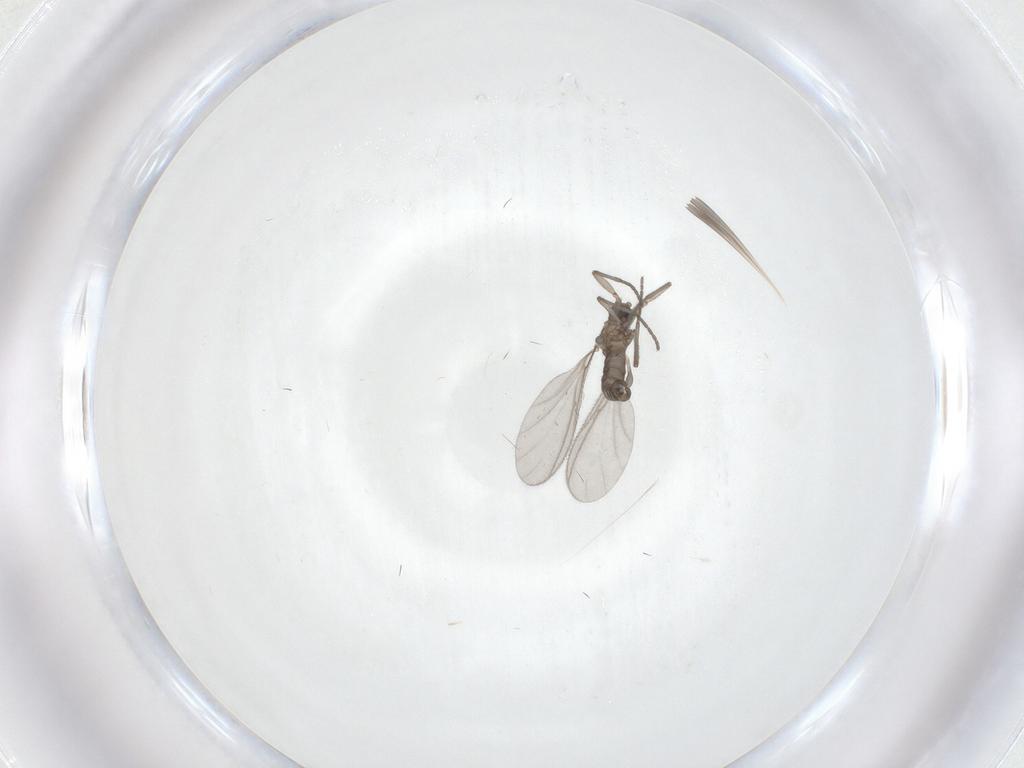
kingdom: Animalia
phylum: Arthropoda
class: Insecta
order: Diptera
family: Sciaridae
